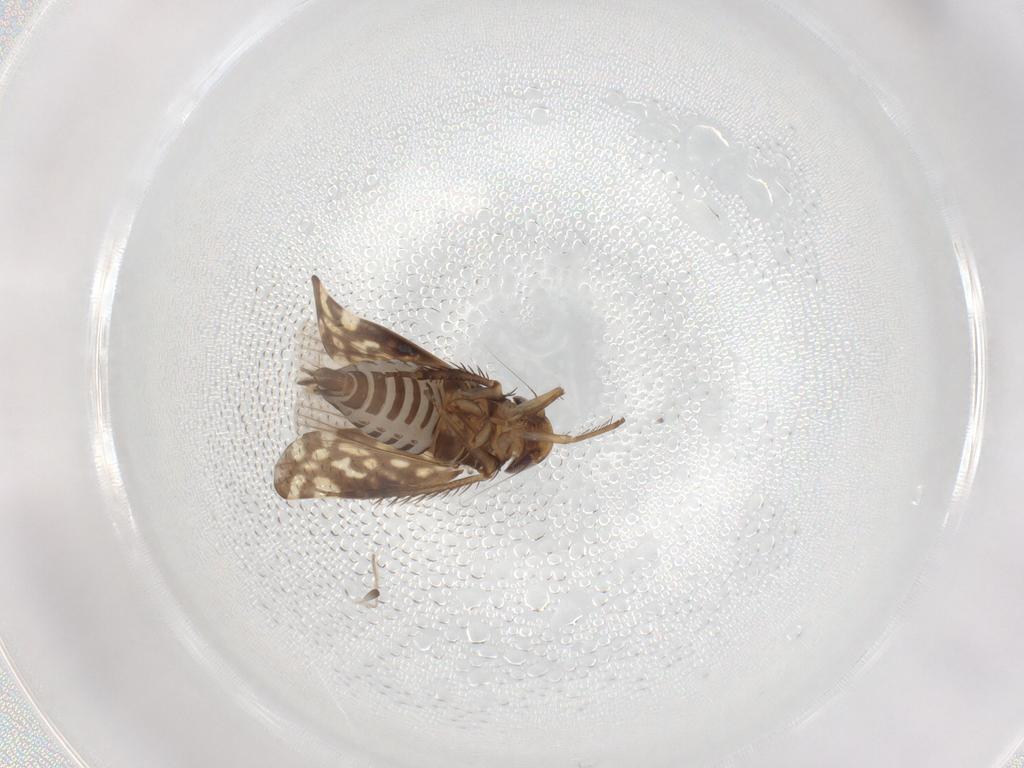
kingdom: Animalia
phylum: Arthropoda
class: Insecta
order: Hemiptera
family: Cicadellidae
